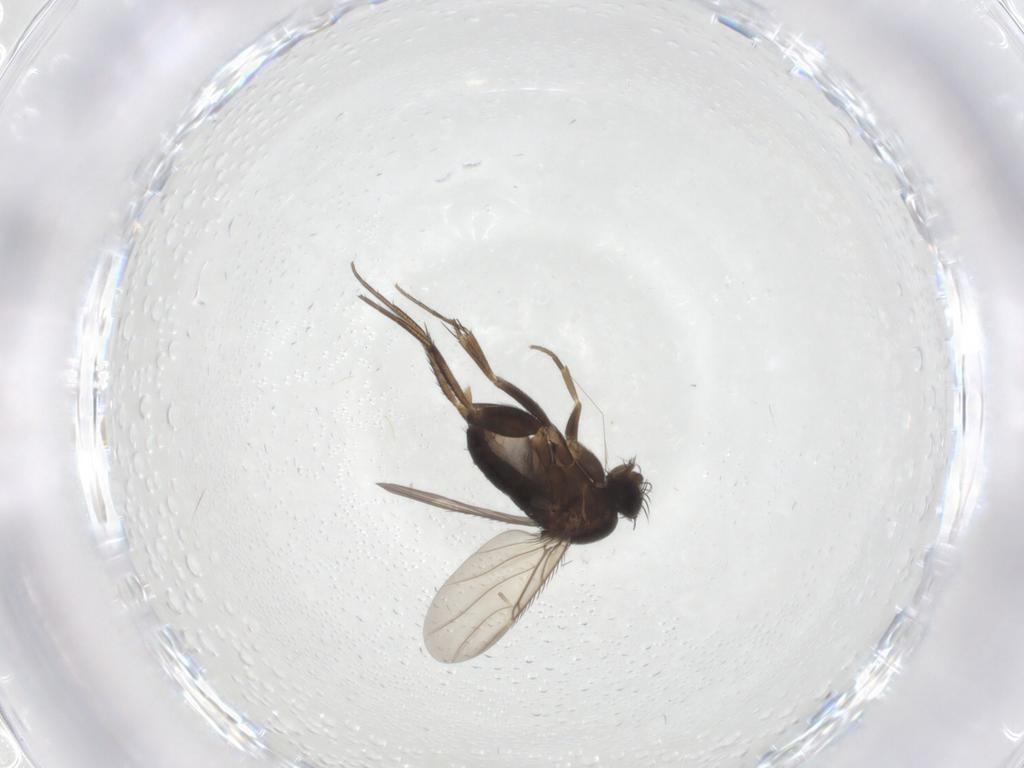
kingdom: Animalia
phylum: Arthropoda
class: Insecta
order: Diptera
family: Phoridae
